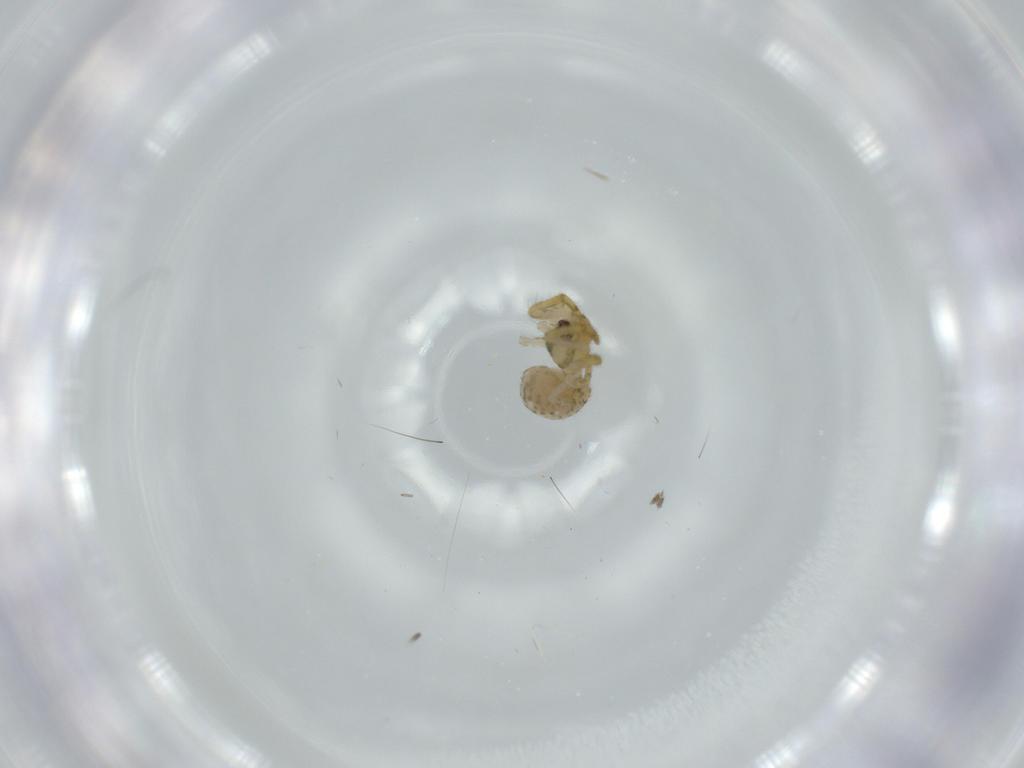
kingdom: Animalia
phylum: Arthropoda
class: Arachnida
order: Araneae
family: Theridiidae
